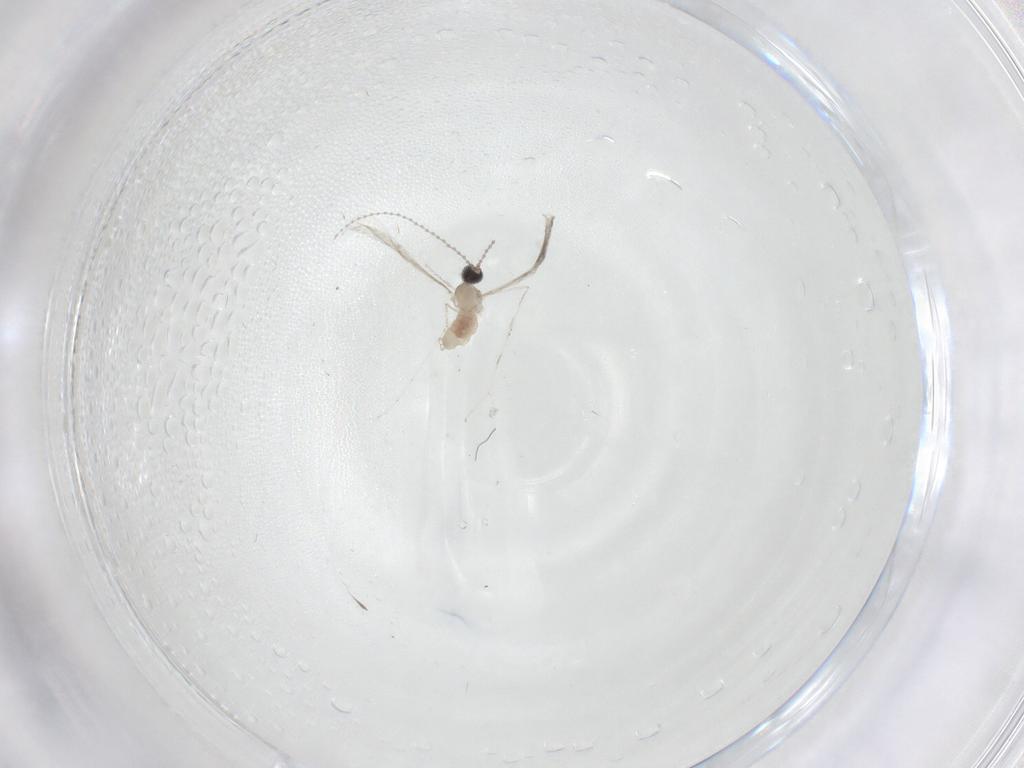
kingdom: Animalia
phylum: Arthropoda
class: Insecta
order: Diptera
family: Cecidomyiidae
